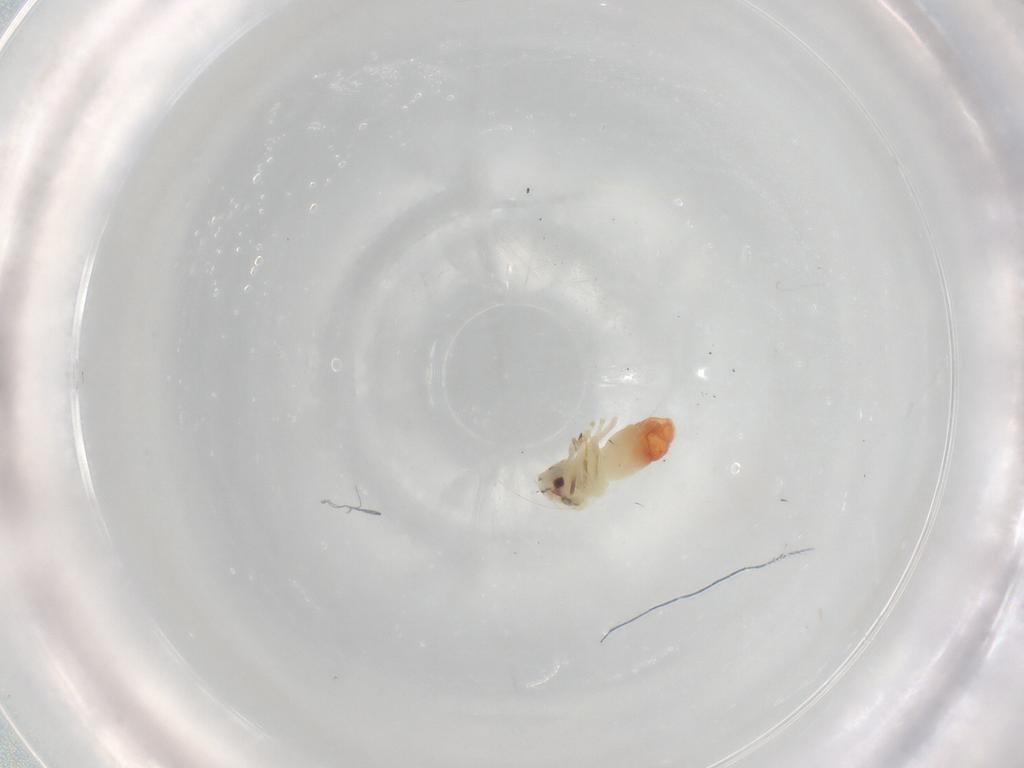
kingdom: Animalia
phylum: Arthropoda
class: Insecta
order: Hemiptera
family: Aleyrodidae
